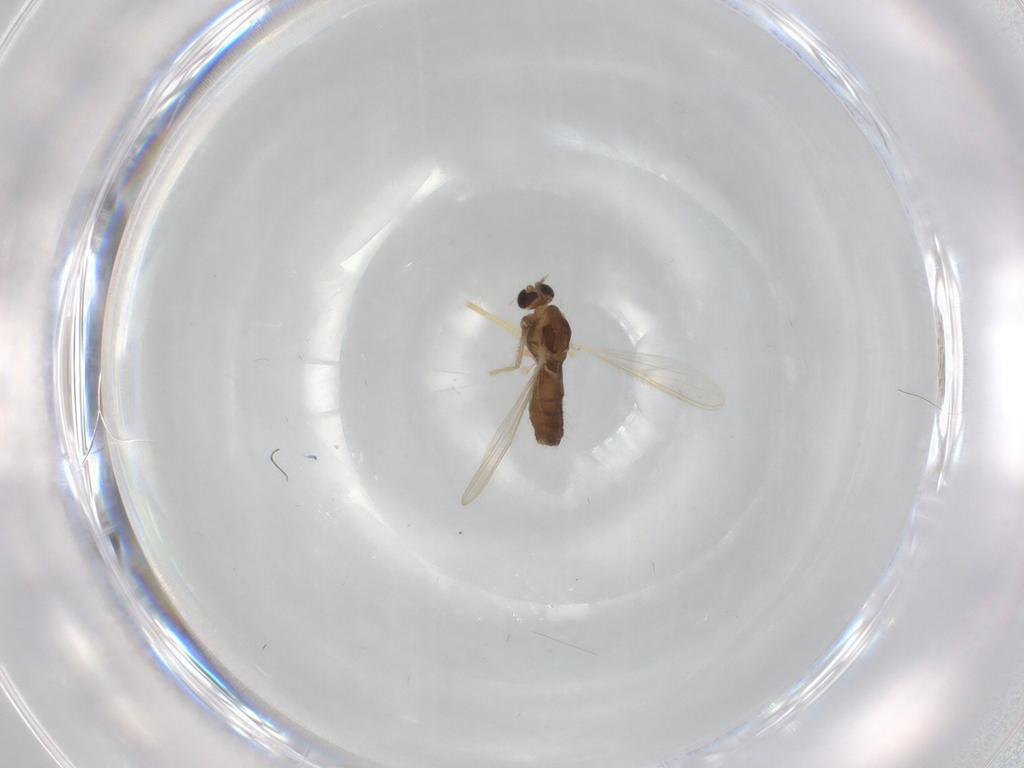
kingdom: Animalia
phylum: Arthropoda
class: Insecta
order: Diptera
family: Chironomidae
